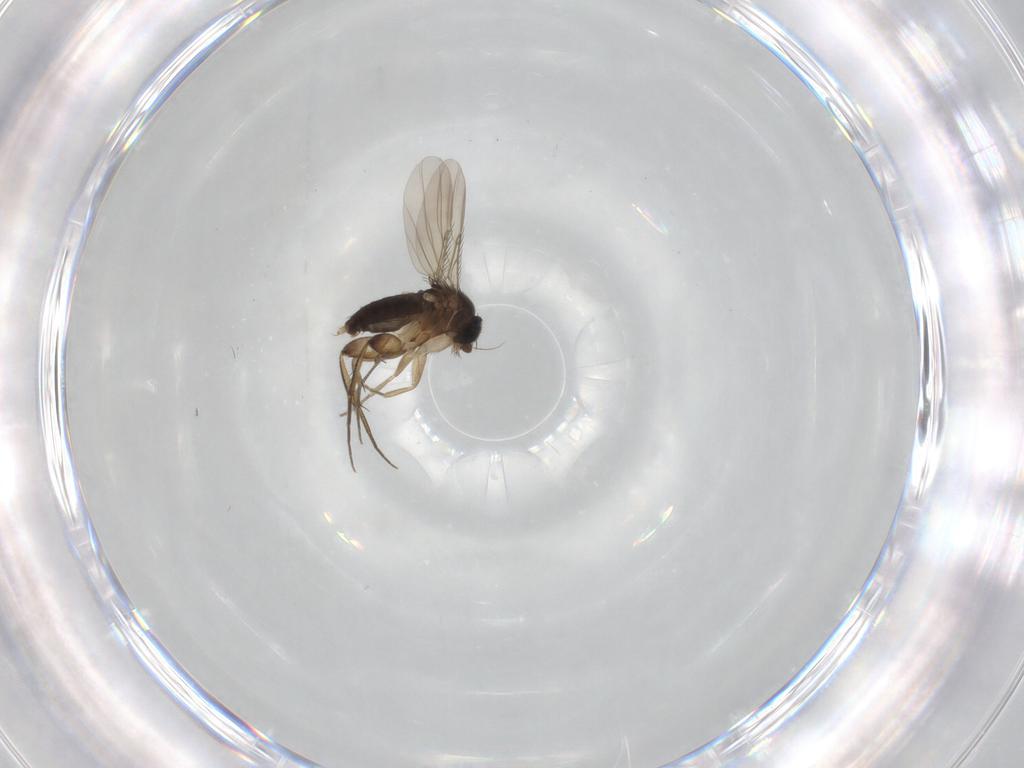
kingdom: Animalia
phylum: Arthropoda
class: Insecta
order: Diptera
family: Phoridae
